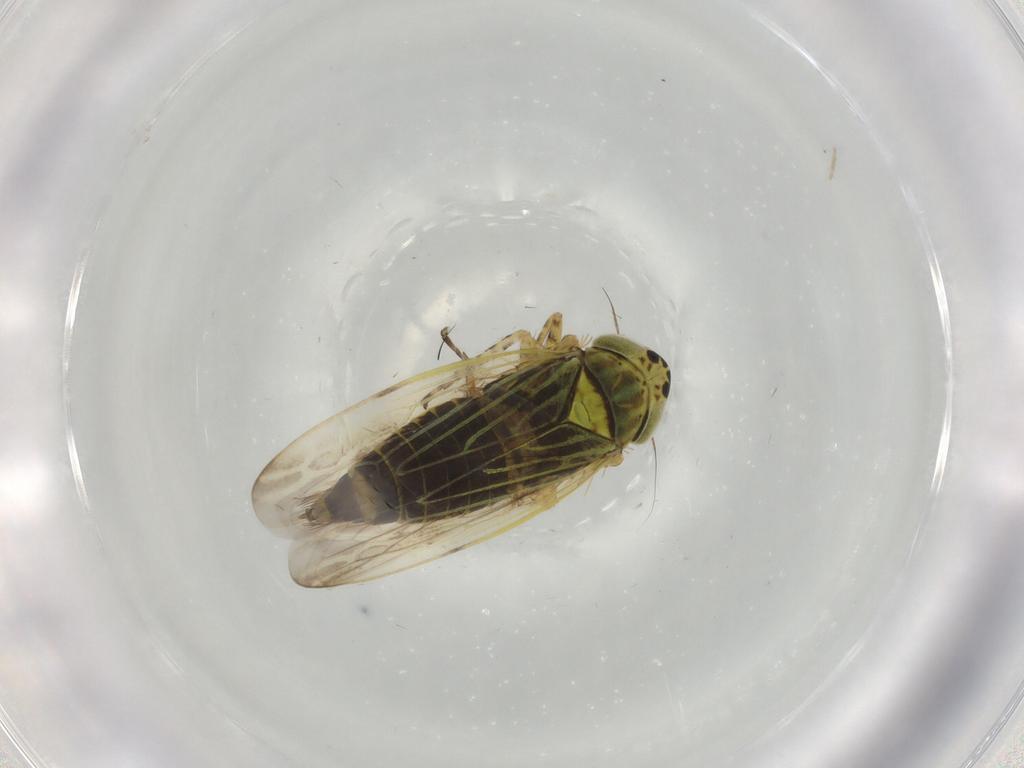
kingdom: Animalia
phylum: Arthropoda
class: Insecta
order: Hemiptera
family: Cicadellidae
